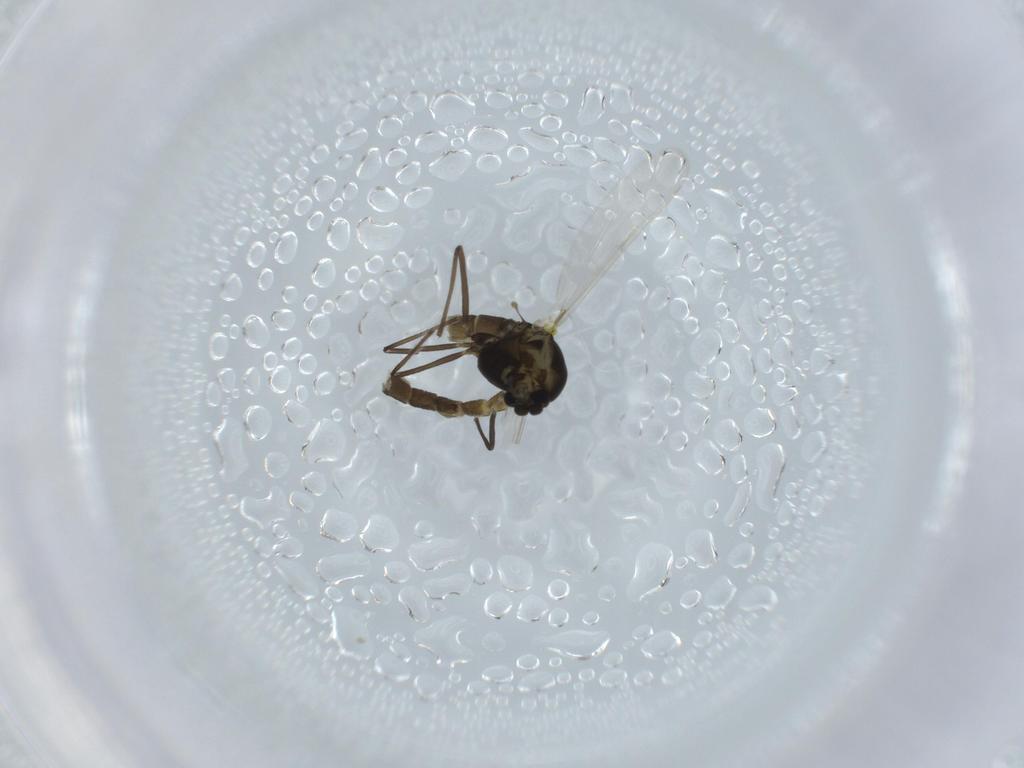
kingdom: Animalia
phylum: Arthropoda
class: Insecta
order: Diptera
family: Chironomidae
